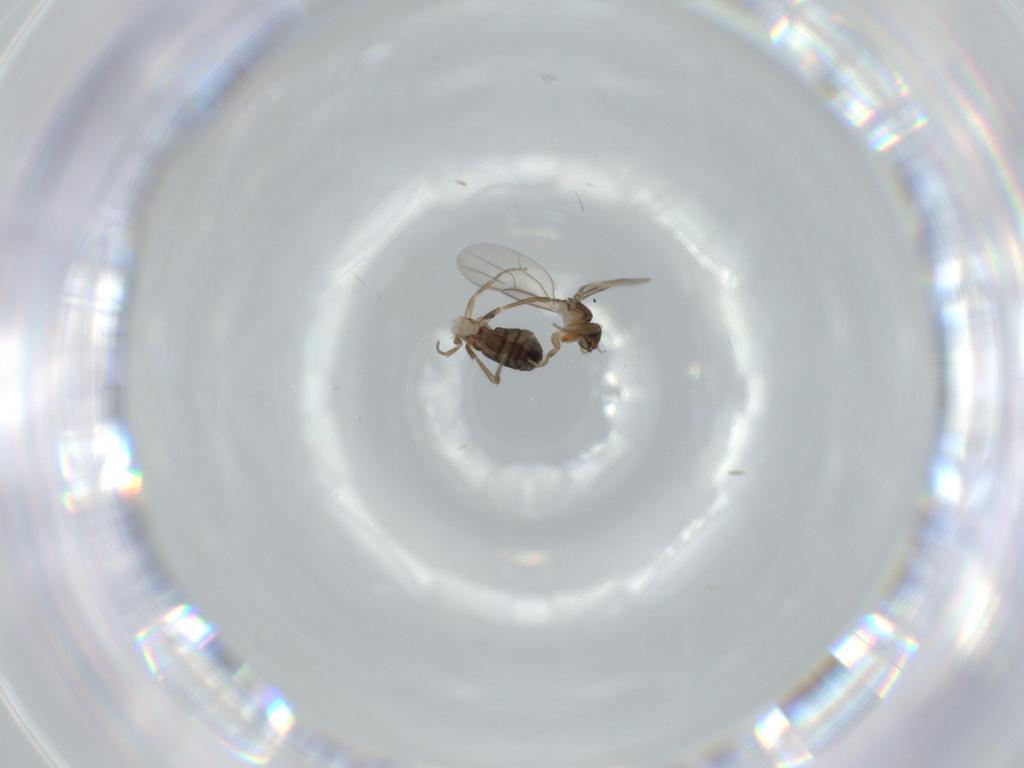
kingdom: Animalia
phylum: Arthropoda
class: Insecta
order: Diptera
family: Phoridae
